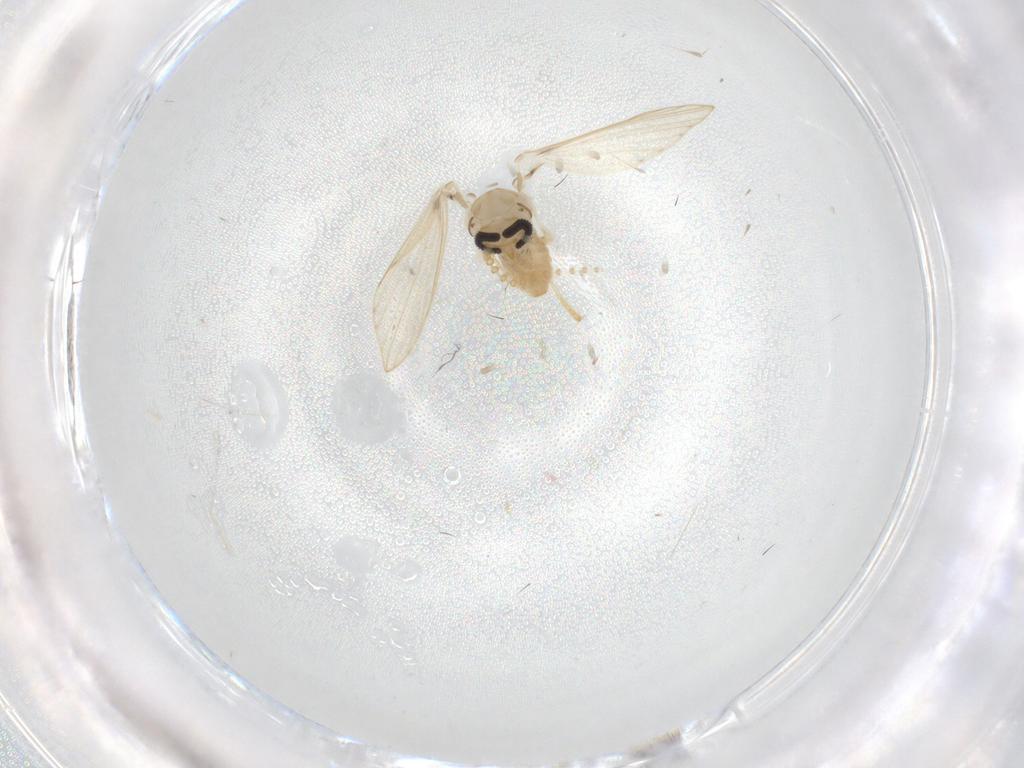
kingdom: Animalia
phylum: Arthropoda
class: Insecta
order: Diptera
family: Psychodidae
